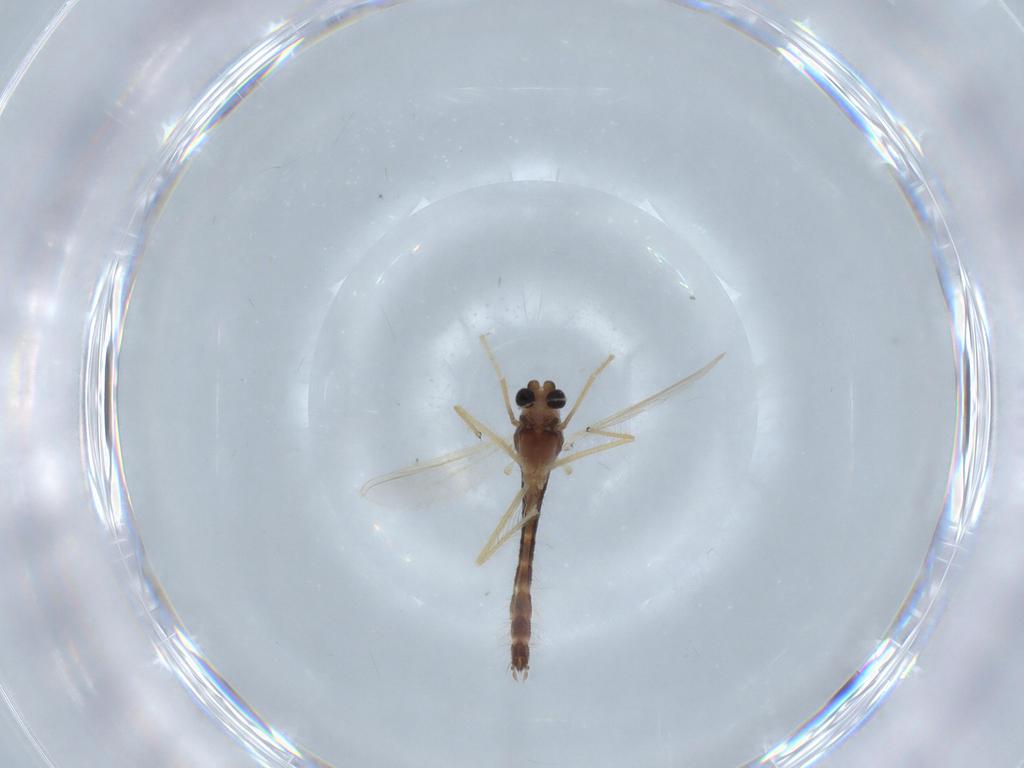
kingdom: Animalia
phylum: Arthropoda
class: Insecta
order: Diptera
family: Chironomidae
